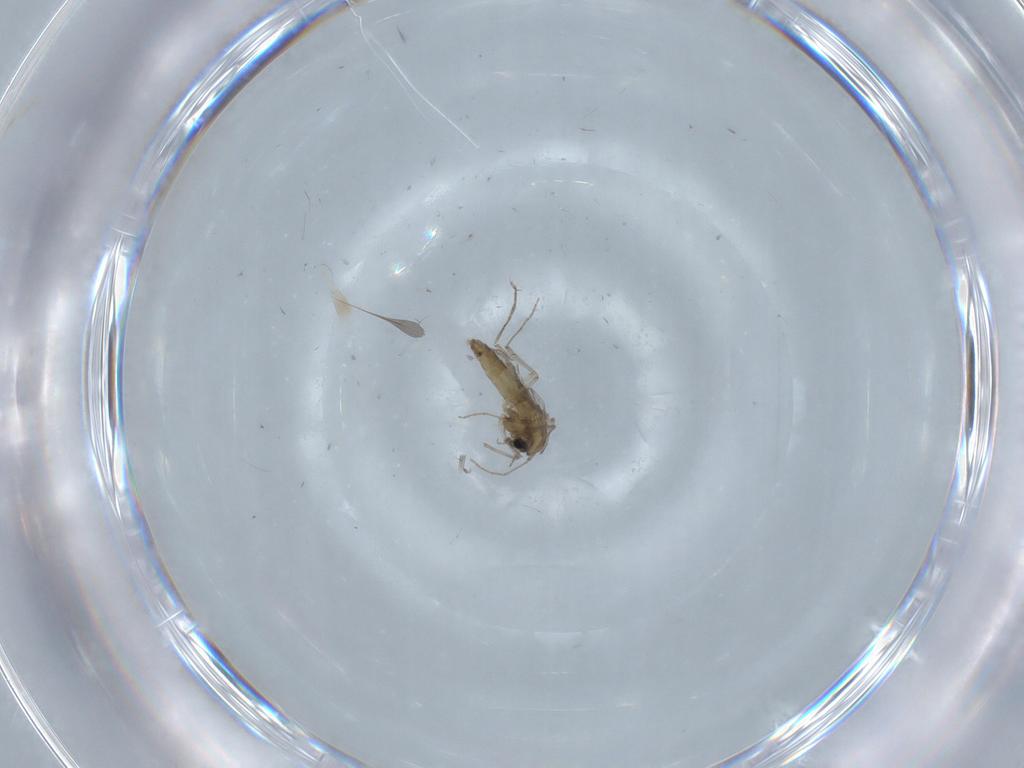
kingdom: Animalia
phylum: Arthropoda
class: Insecta
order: Diptera
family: Chironomidae
